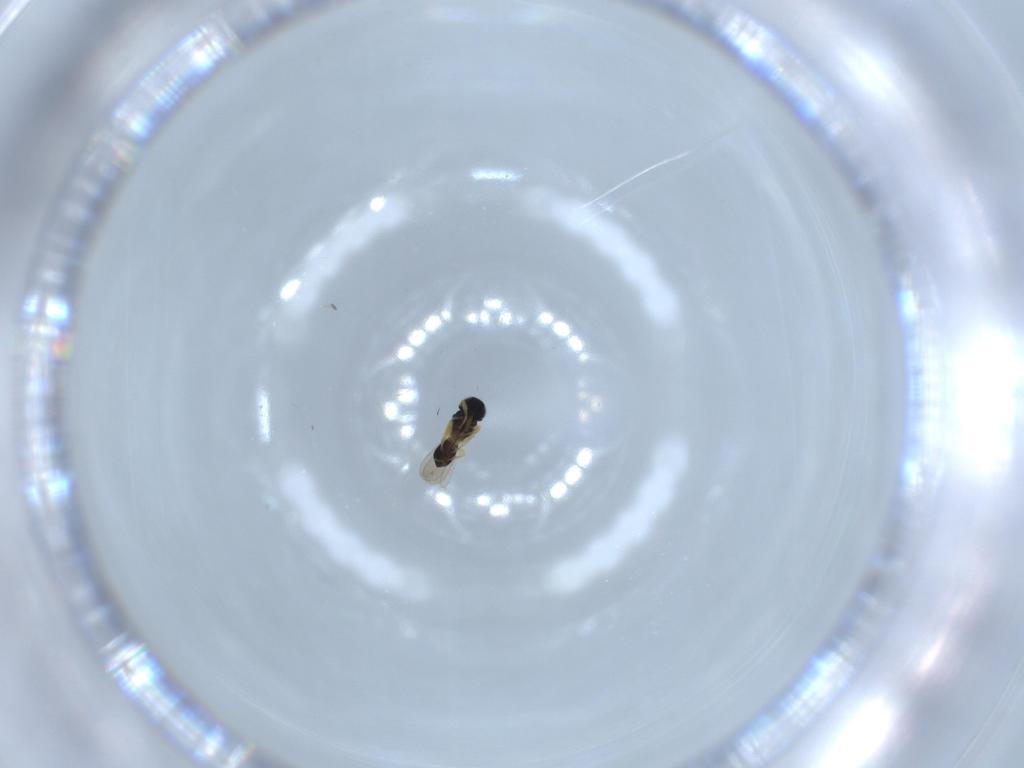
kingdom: Animalia
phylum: Arthropoda
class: Insecta
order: Hymenoptera
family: Scelionidae
